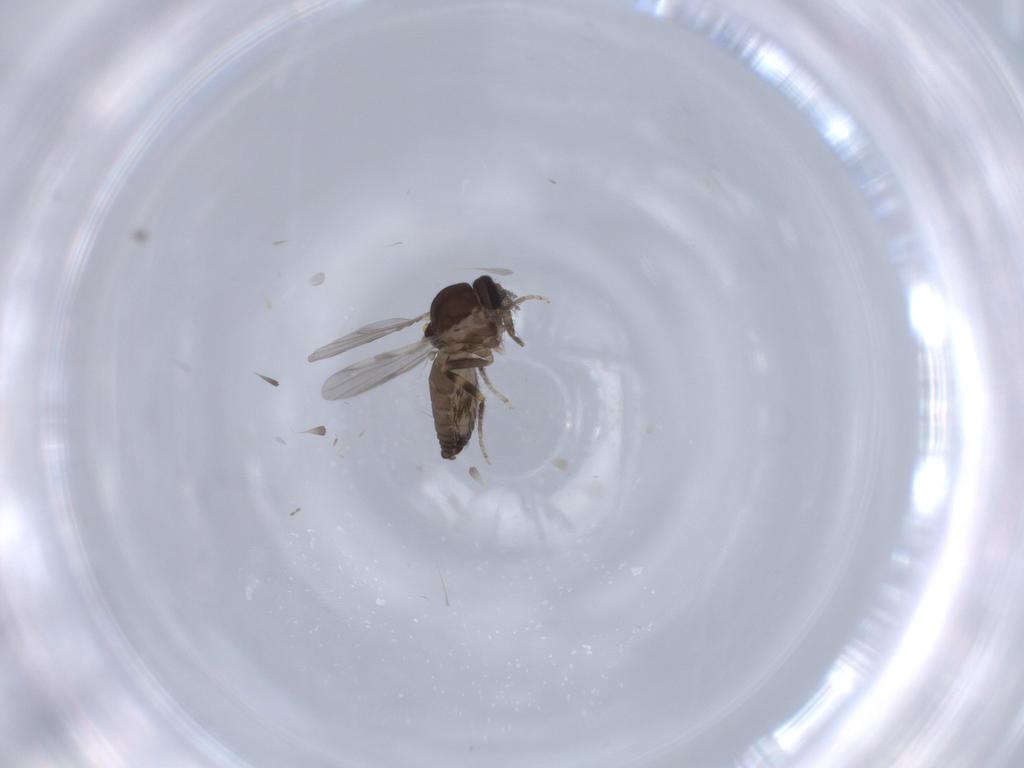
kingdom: Animalia
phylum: Arthropoda
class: Insecta
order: Diptera
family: Ceratopogonidae
